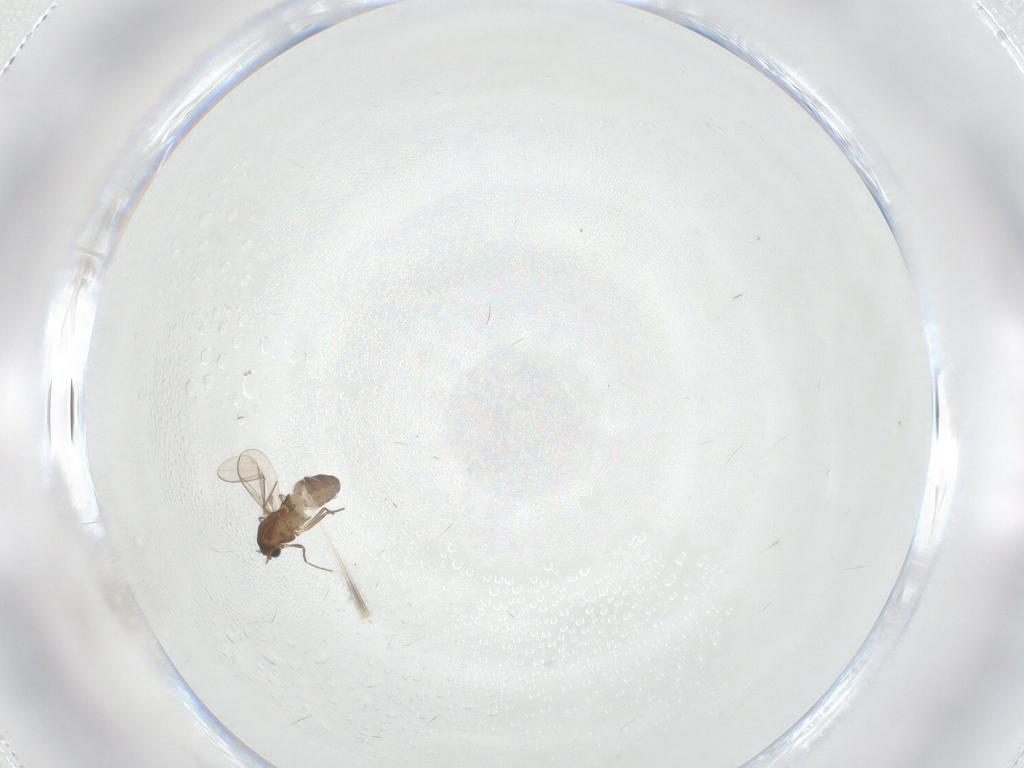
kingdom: Animalia
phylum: Arthropoda
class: Insecta
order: Diptera
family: Chironomidae
